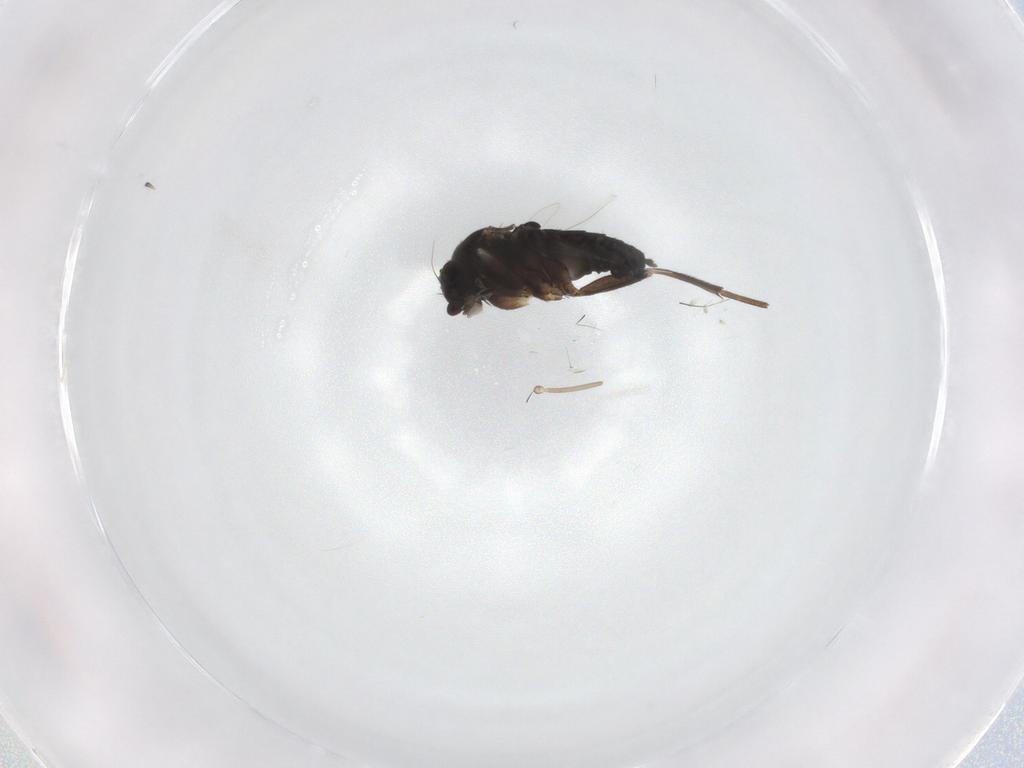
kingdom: Animalia
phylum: Arthropoda
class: Insecta
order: Diptera
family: Phoridae
